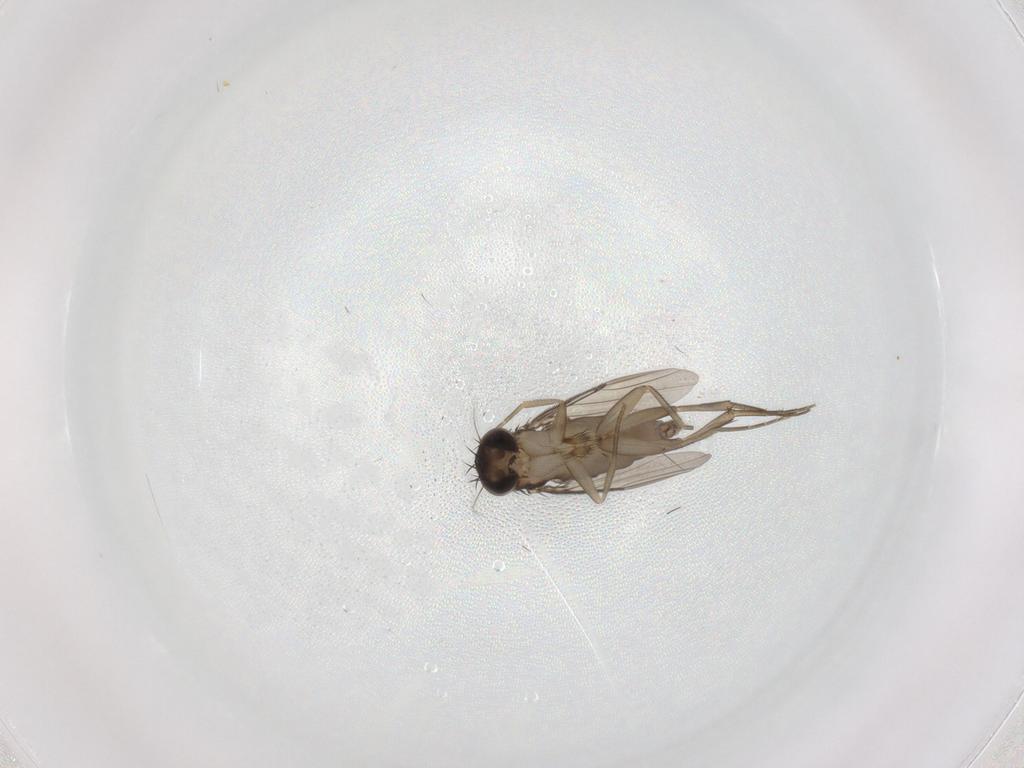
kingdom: Animalia
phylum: Arthropoda
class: Insecta
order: Diptera
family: Phoridae
